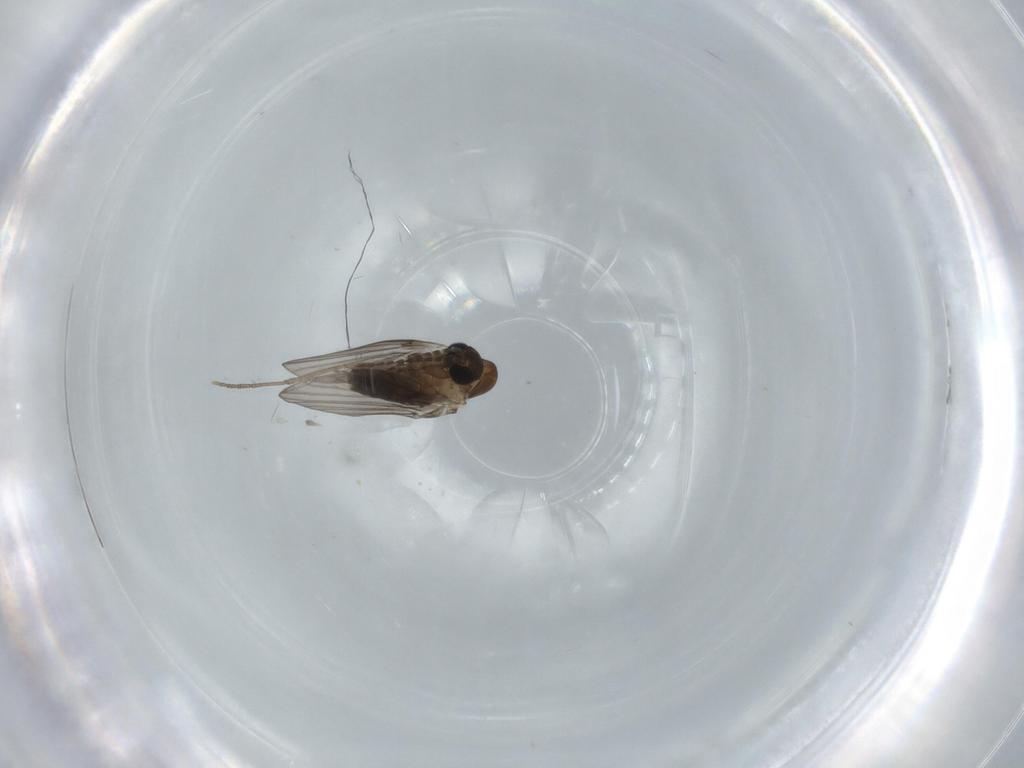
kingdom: Animalia
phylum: Arthropoda
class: Insecta
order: Diptera
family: Psychodidae
